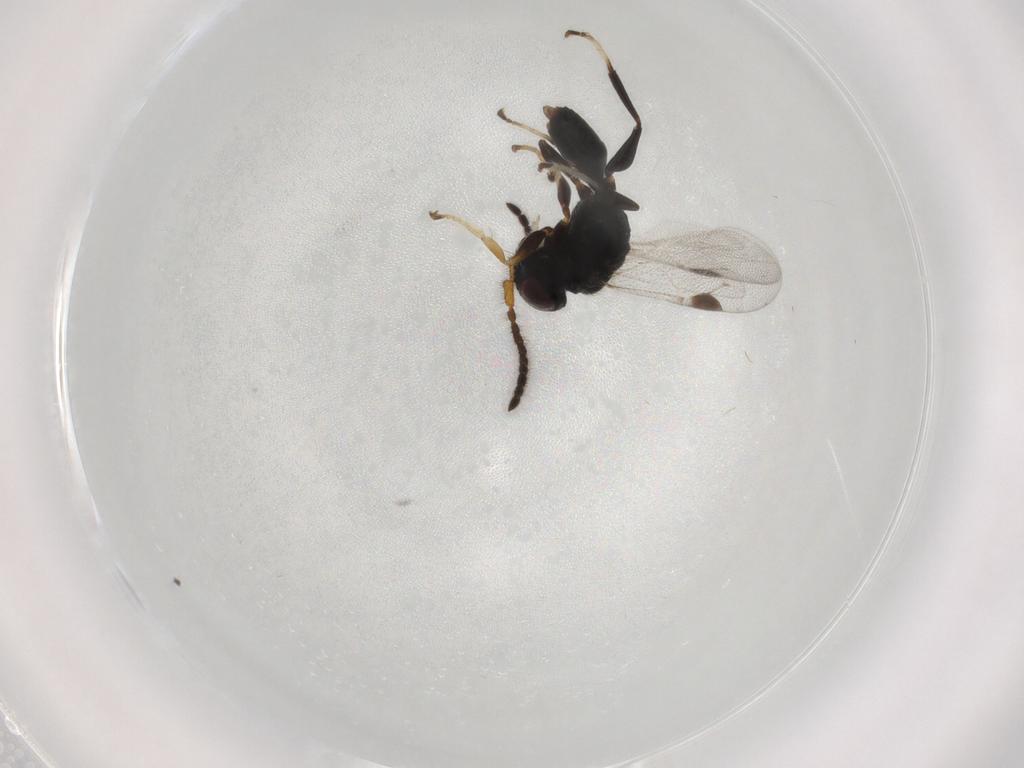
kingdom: Animalia
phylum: Arthropoda
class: Insecta
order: Hymenoptera
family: Dryinidae
